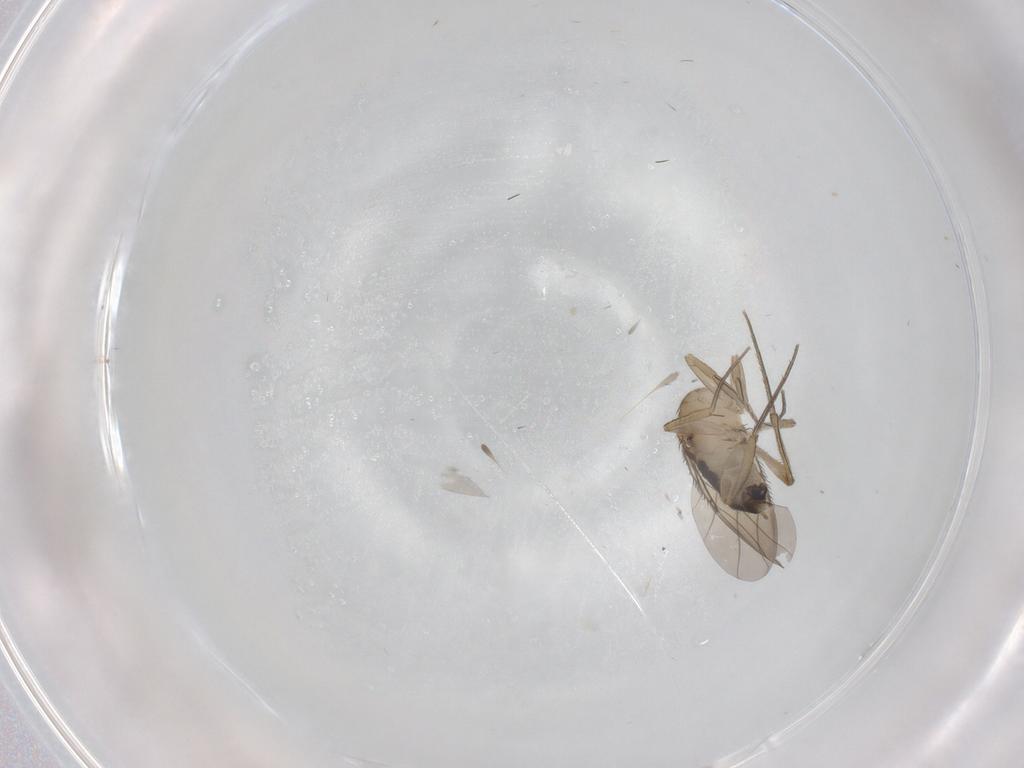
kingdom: Animalia
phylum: Arthropoda
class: Insecta
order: Diptera
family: Phoridae
